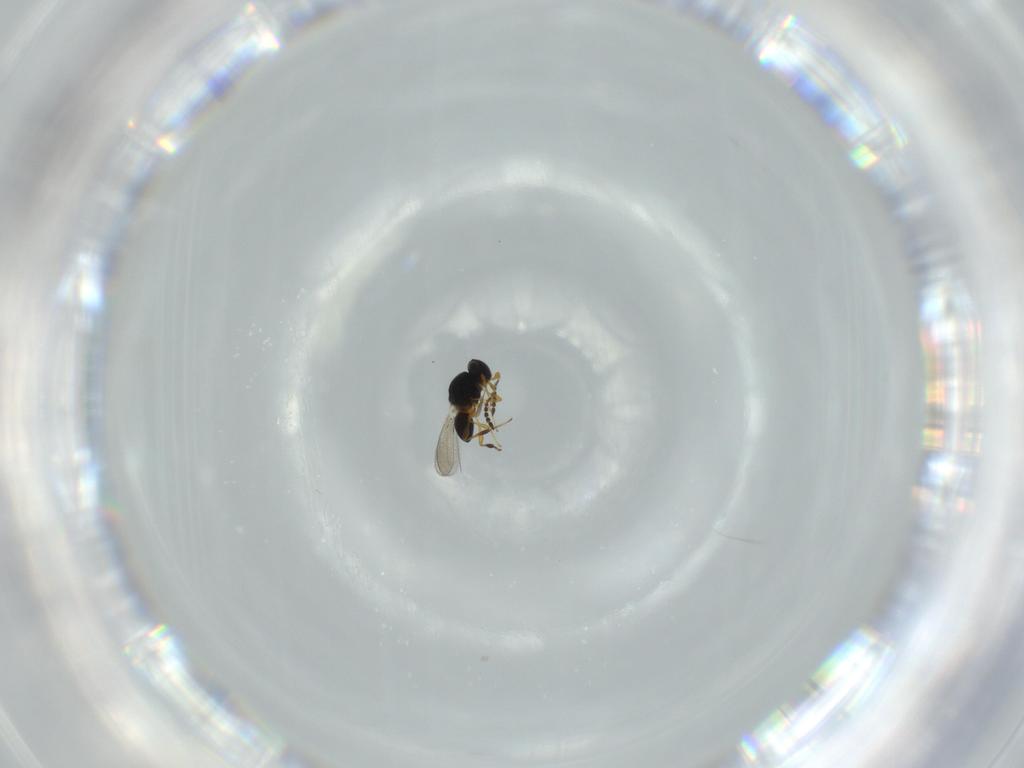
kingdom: Animalia
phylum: Arthropoda
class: Insecta
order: Hymenoptera
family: Platygastridae
